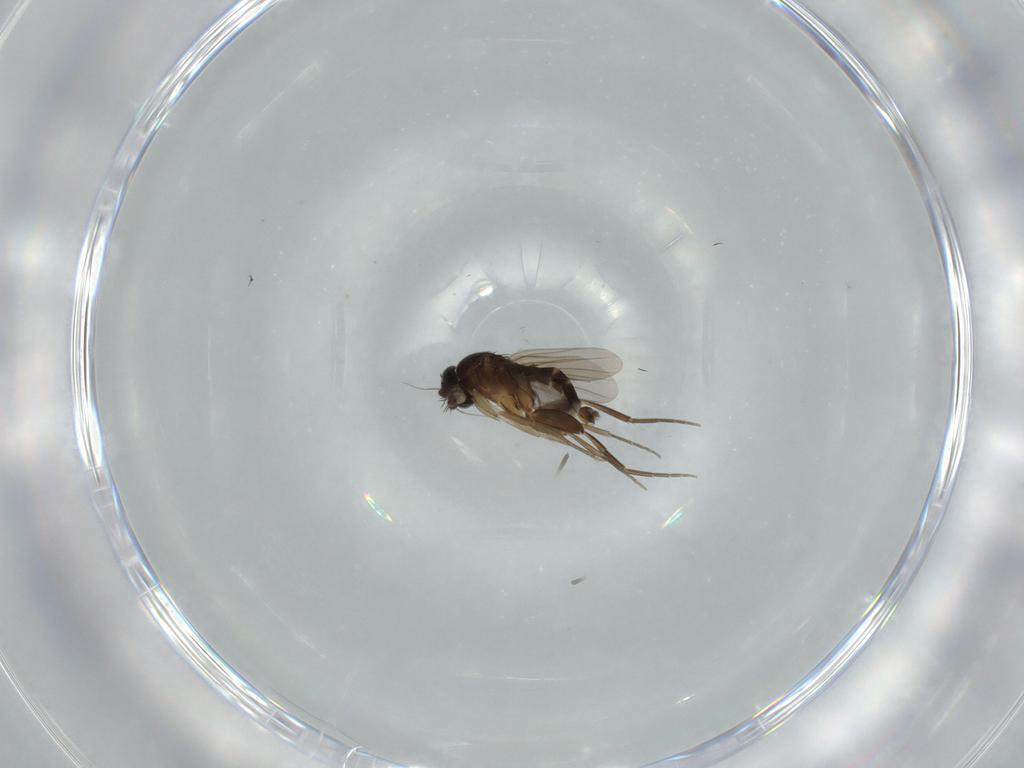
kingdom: Animalia
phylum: Arthropoda
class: Insecta
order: Diptera
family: Phoridae
